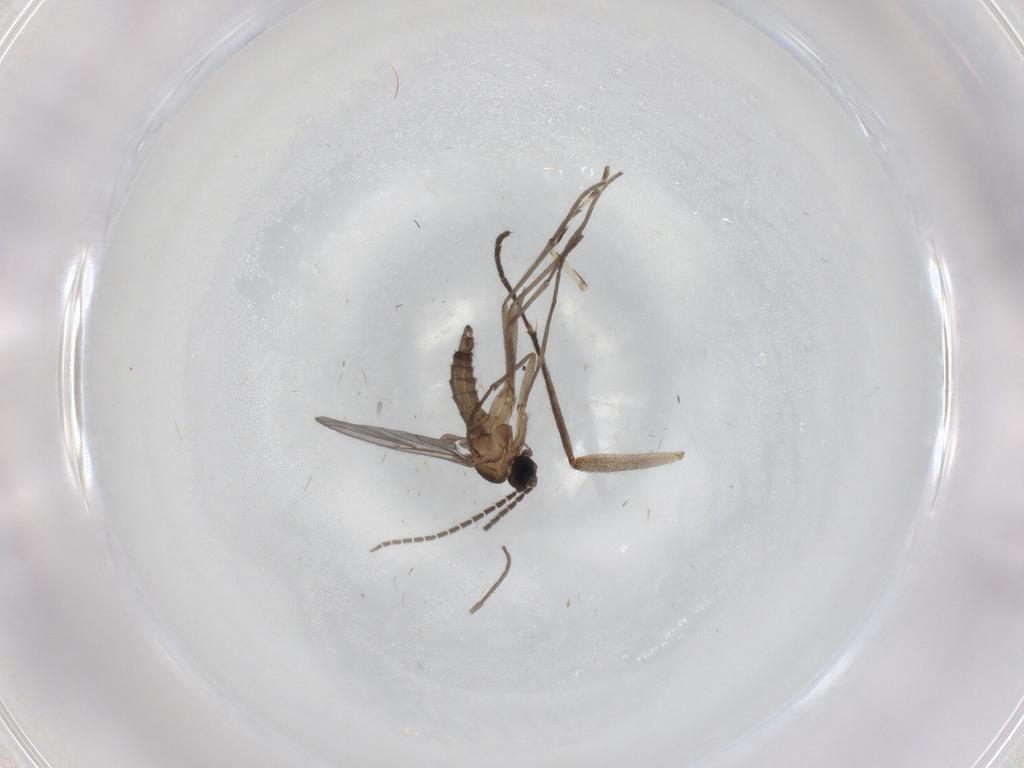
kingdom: Animalia
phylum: Arthropoda
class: Insecta
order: Diptera
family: Sciaridae
